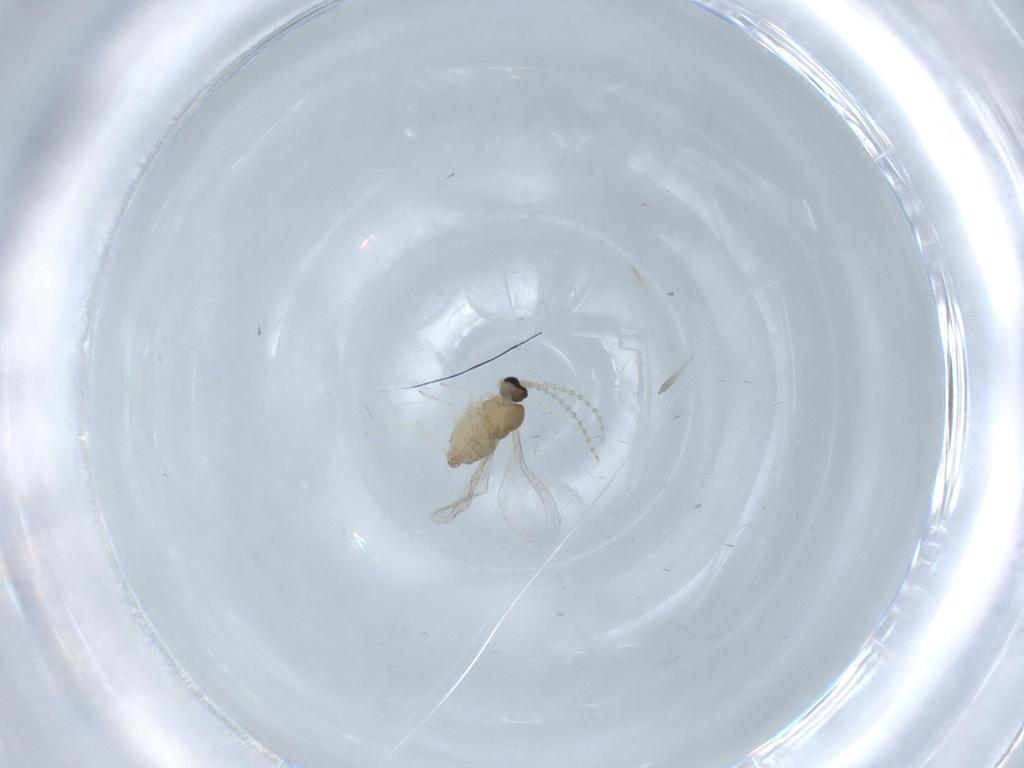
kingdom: Animalia
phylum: Arthropoda
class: Insecta
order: Diptera
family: Cecidomyiidae
